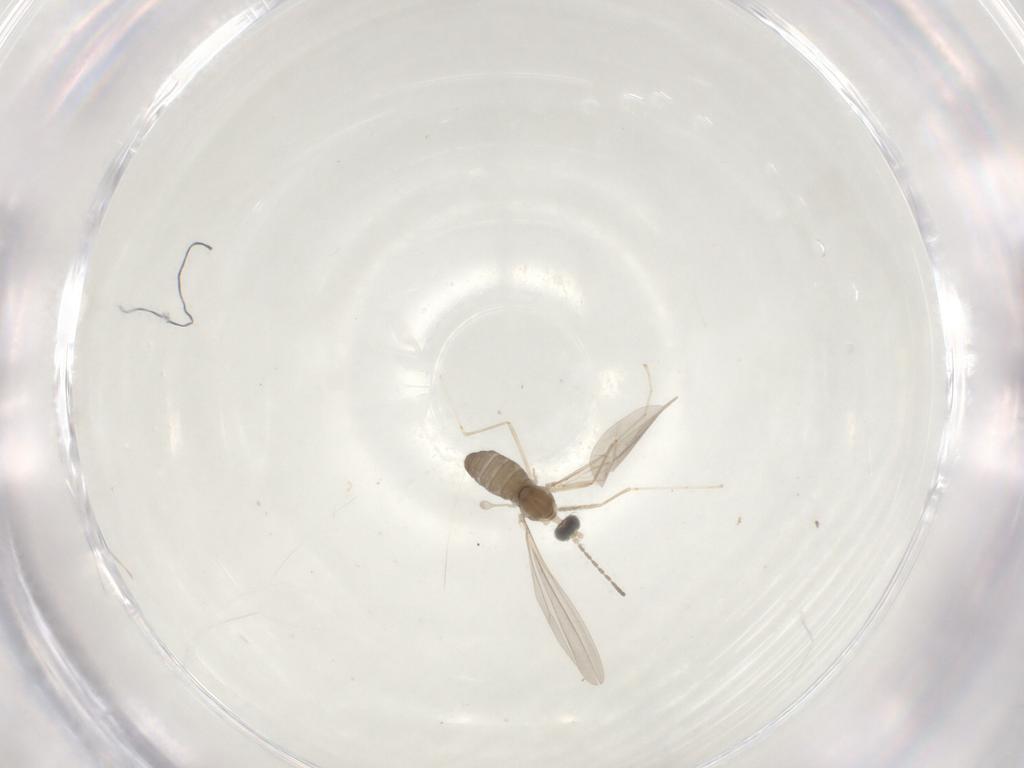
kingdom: Animalia
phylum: Arthropoda
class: Insecta
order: Diptera
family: Cecidomyiidae
